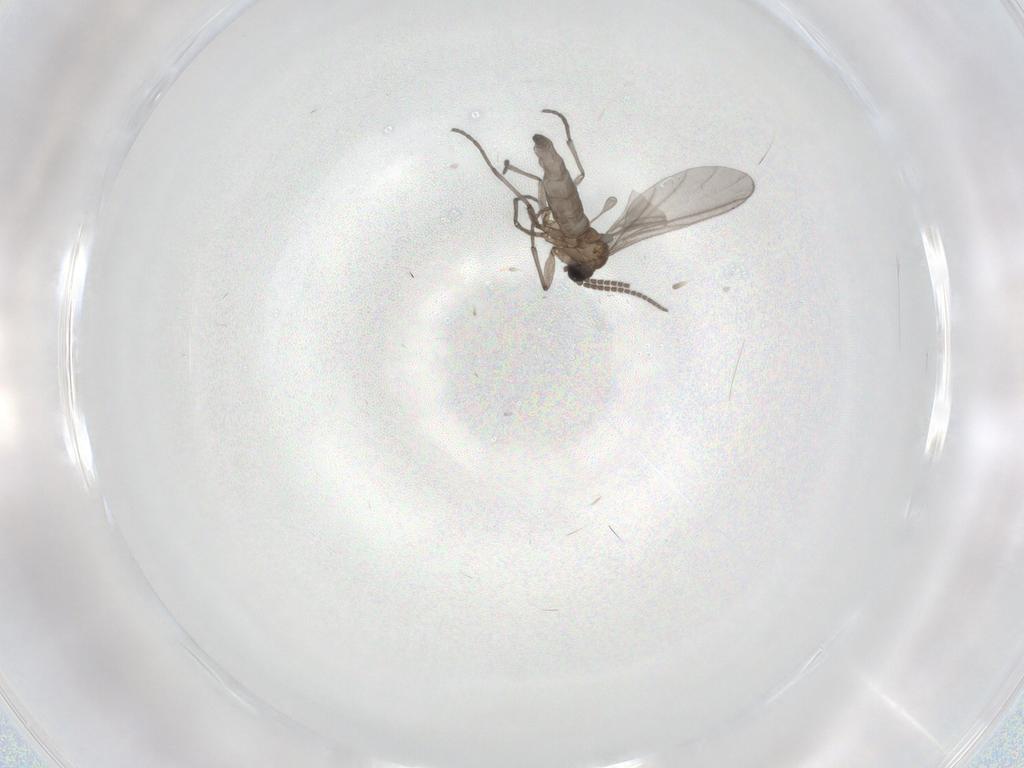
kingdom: Animalia
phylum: Arthropoda
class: Insecta
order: Diptera
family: Sciaridae
